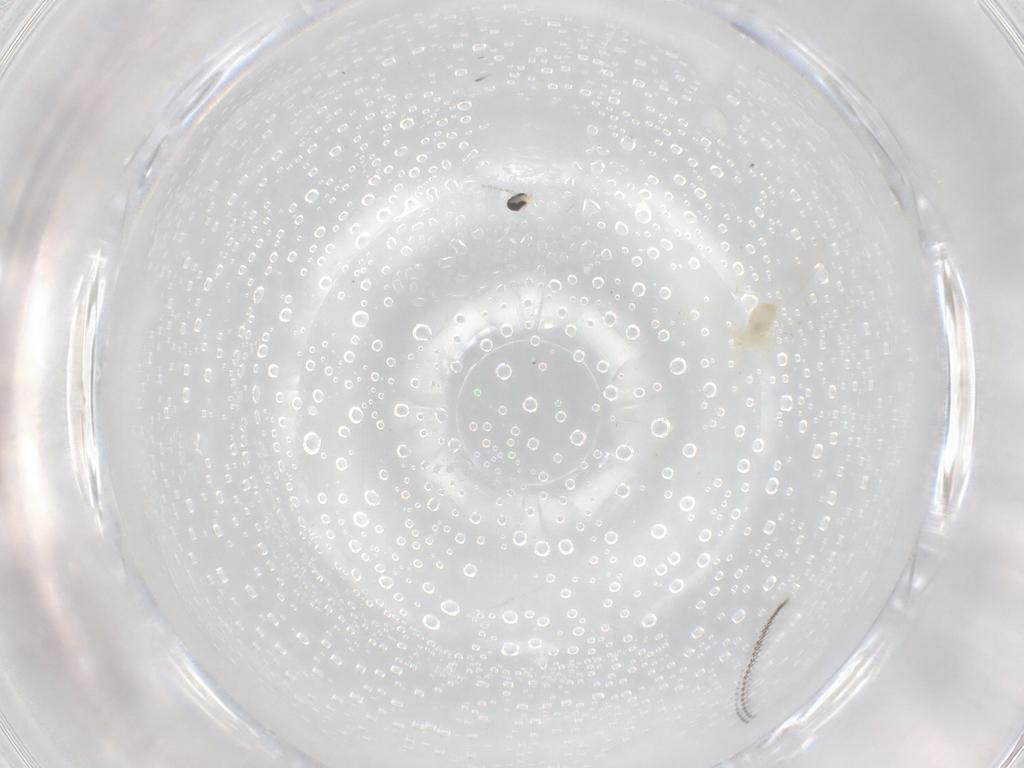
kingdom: Animalia
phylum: Arthropoda
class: Insecta
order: Diptera
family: Cecidomyiidae
